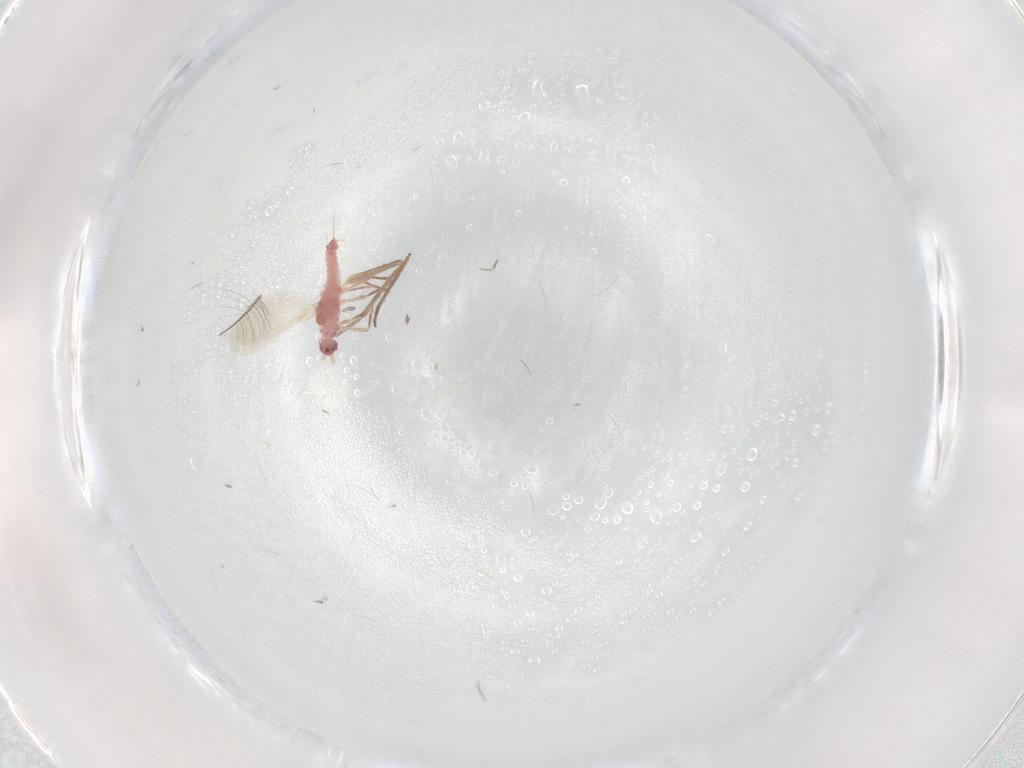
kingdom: Animalia
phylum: Arthropoda
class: Insecta
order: Diptera
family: Chironomidae
